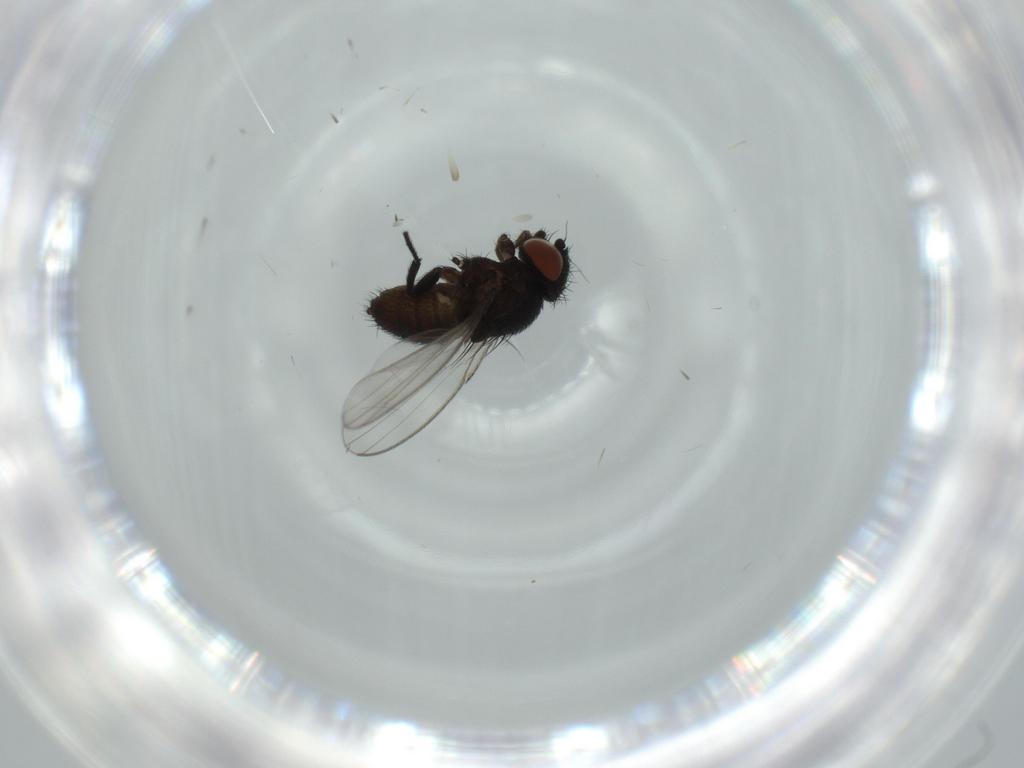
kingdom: Animalia
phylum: Arthropoda
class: Insecta
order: Diptera
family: Milichiidae
